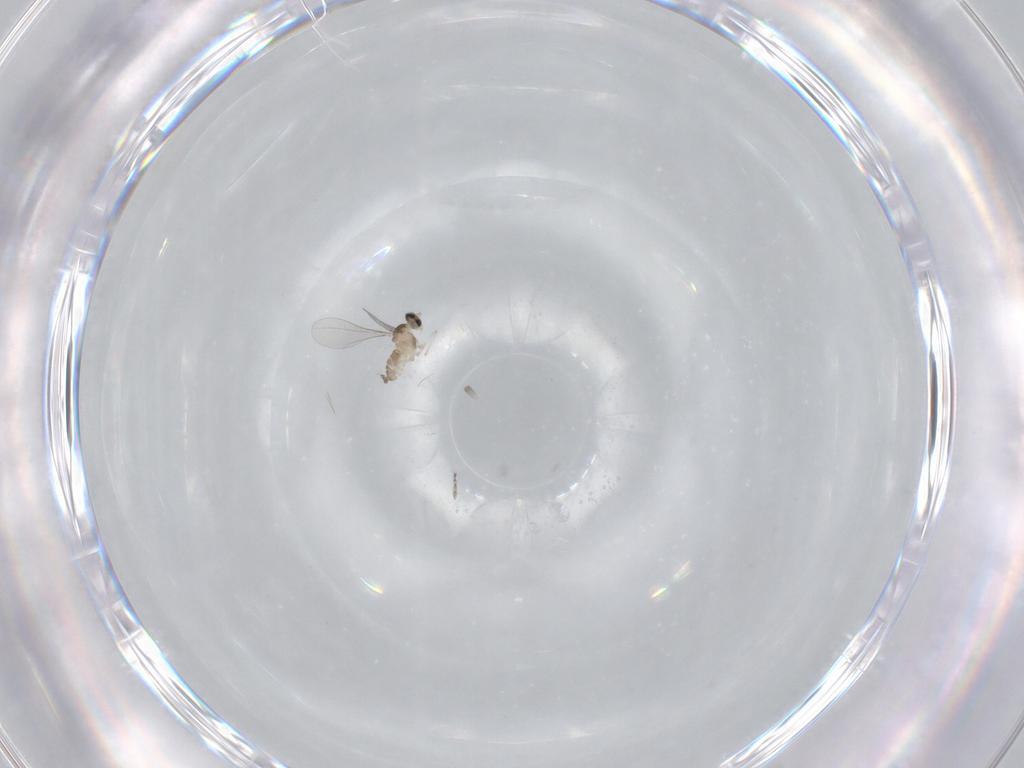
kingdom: Animalia
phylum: Arthropoda
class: Insecta
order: Diptera
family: Cecidomyiidae
